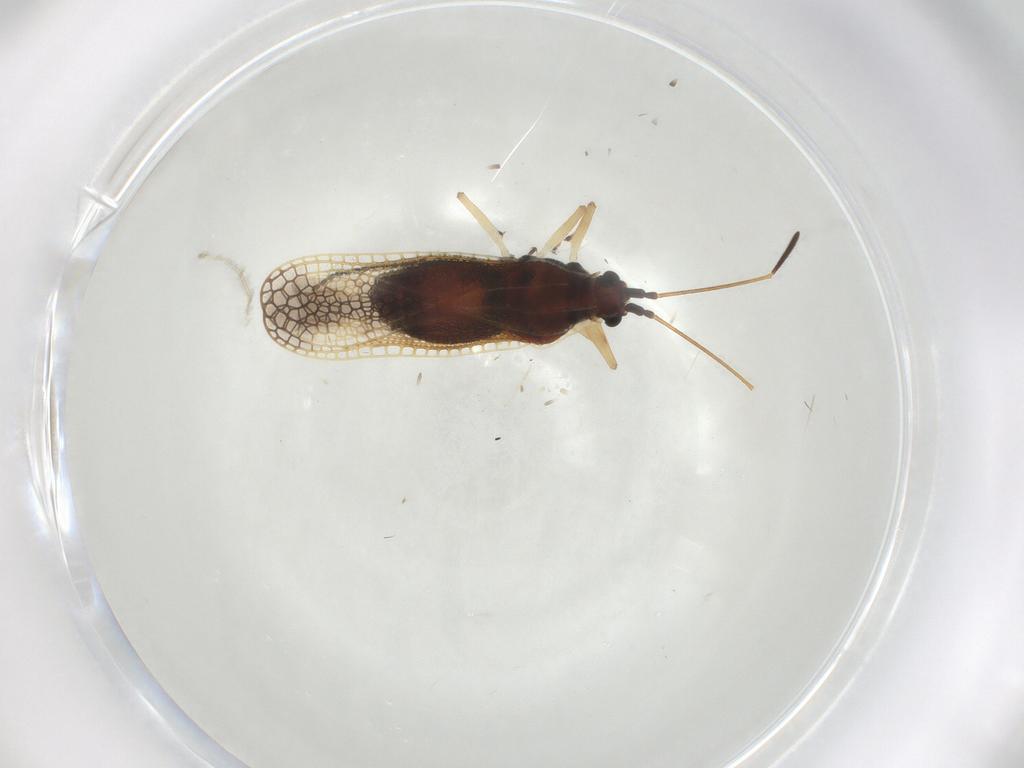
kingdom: Animalia
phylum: Arthropoda
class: Insecta
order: Hemiptera
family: Tingidae
